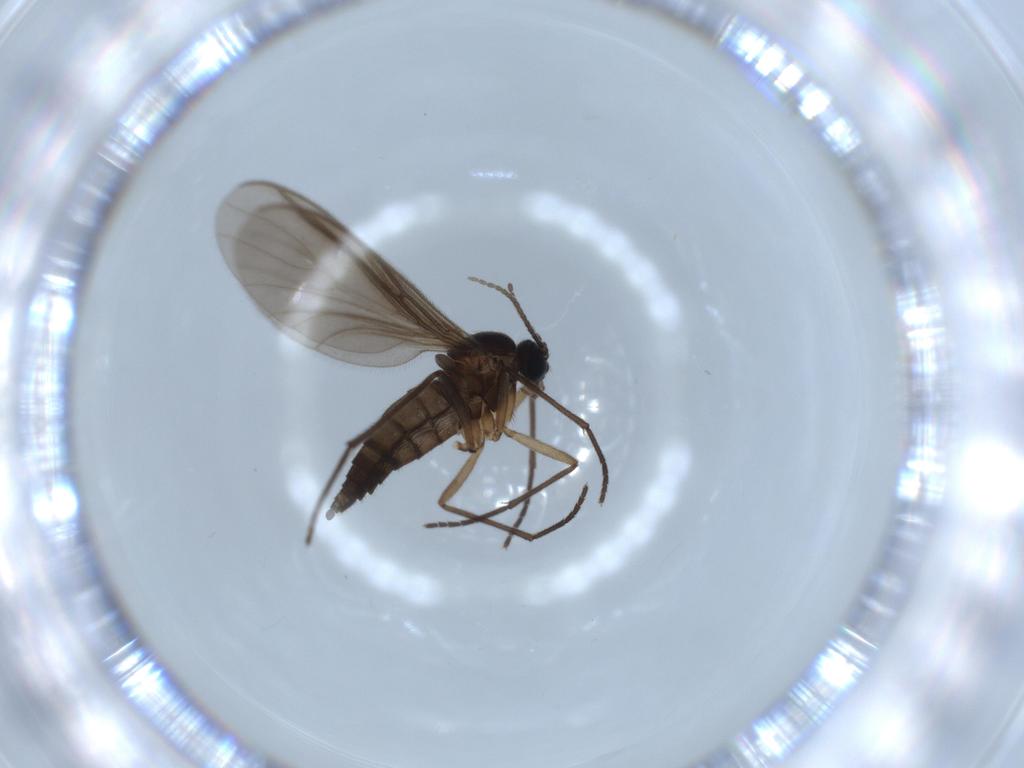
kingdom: Animalia
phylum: Arthropoda
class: Insecta
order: Diptera
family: Sciaridae
